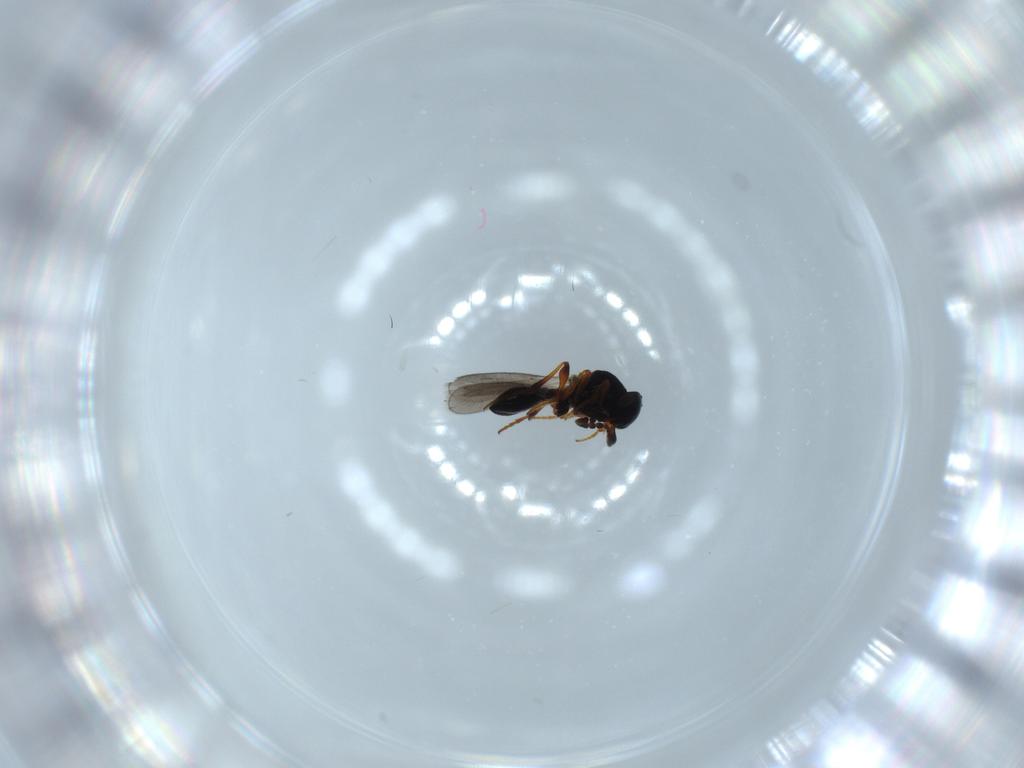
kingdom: Animalia
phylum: Arthropoda
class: Insecta
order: Hymenoptera
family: Platygastridae
